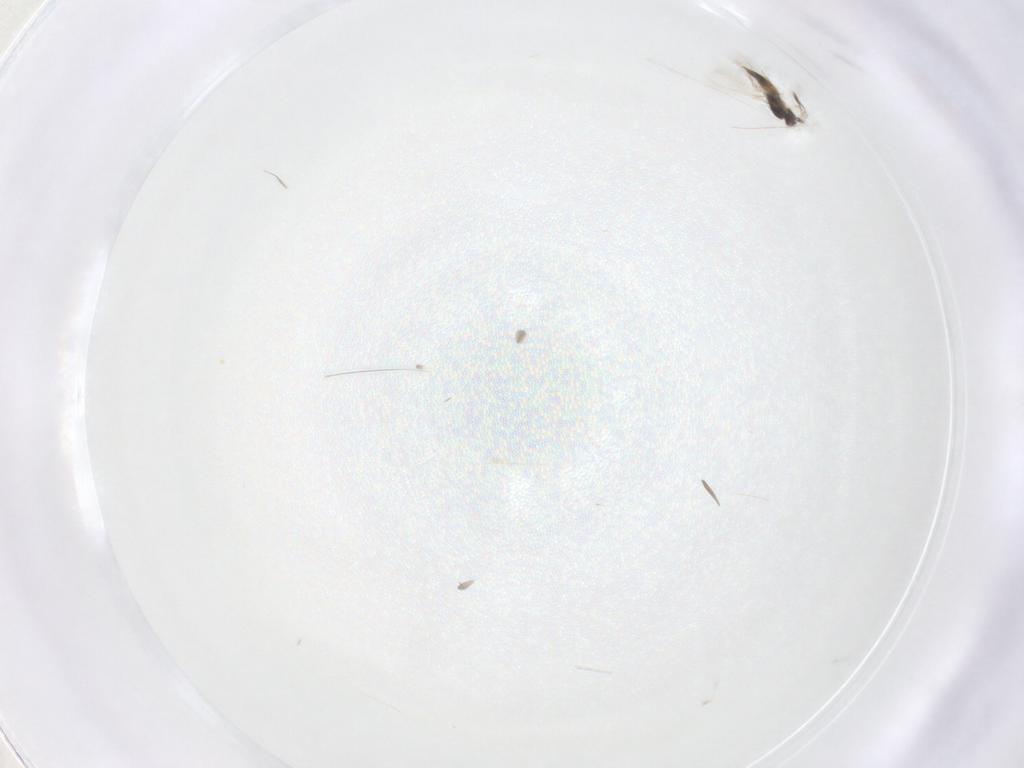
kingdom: Animalia
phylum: Arthropoda
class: Insecta
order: Hymenoptera
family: Mymaridae
